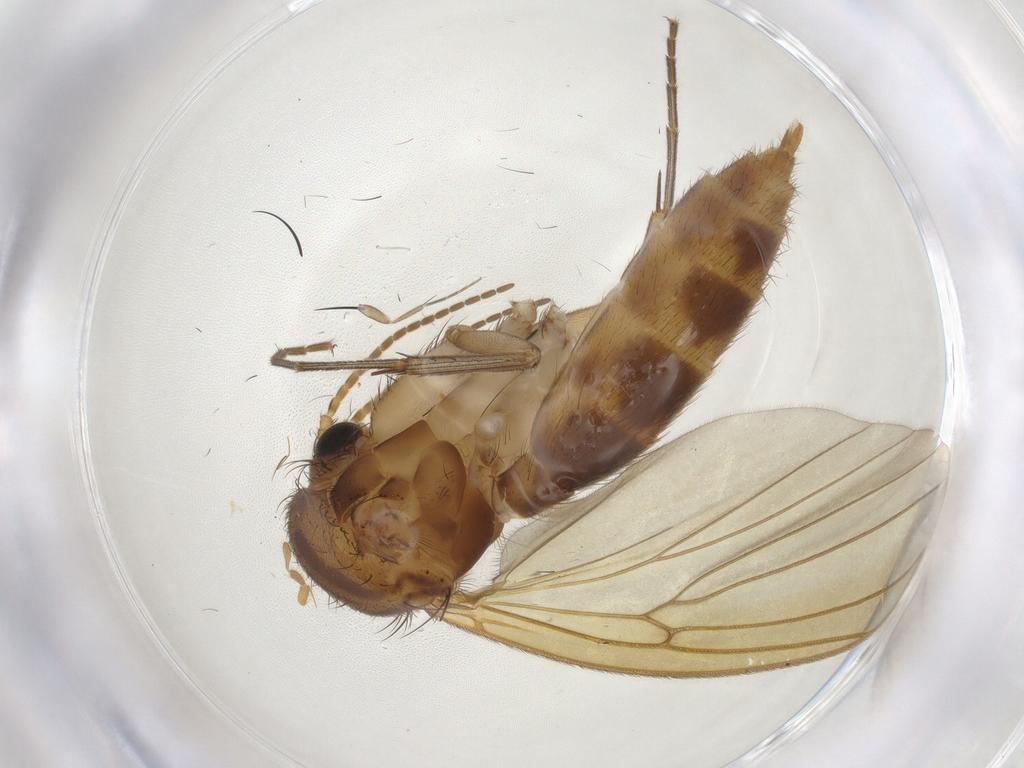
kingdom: Animalia
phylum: Arthropoda
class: Insecta
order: Diptera
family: Mycetophilidae
